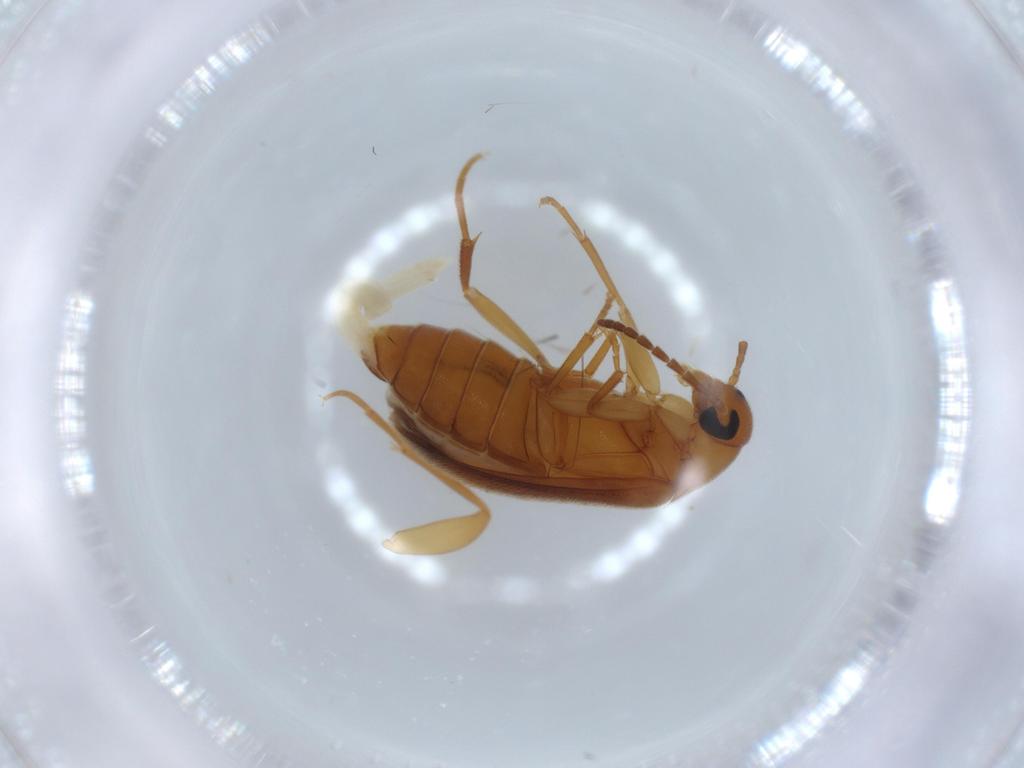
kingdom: Animalia
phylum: Arthropoda
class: Insecta
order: Coleoptera
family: Scraptiidae
